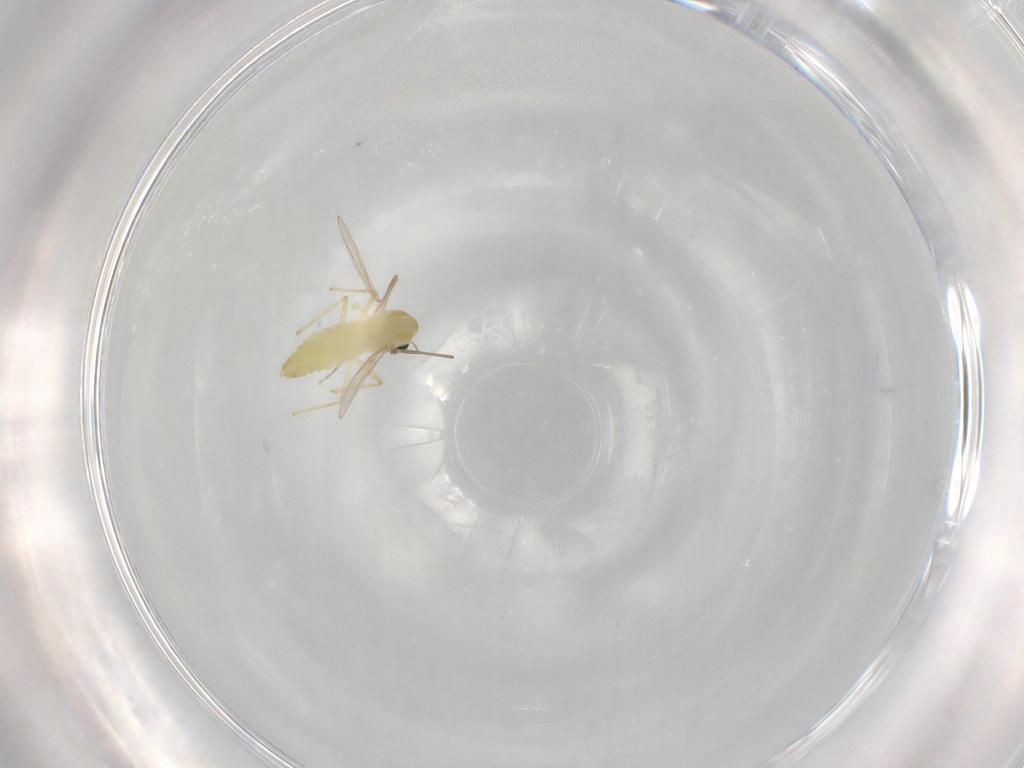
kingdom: Animalia
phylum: Arthropoda
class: Insecta
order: Diptera
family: Chironomidae
